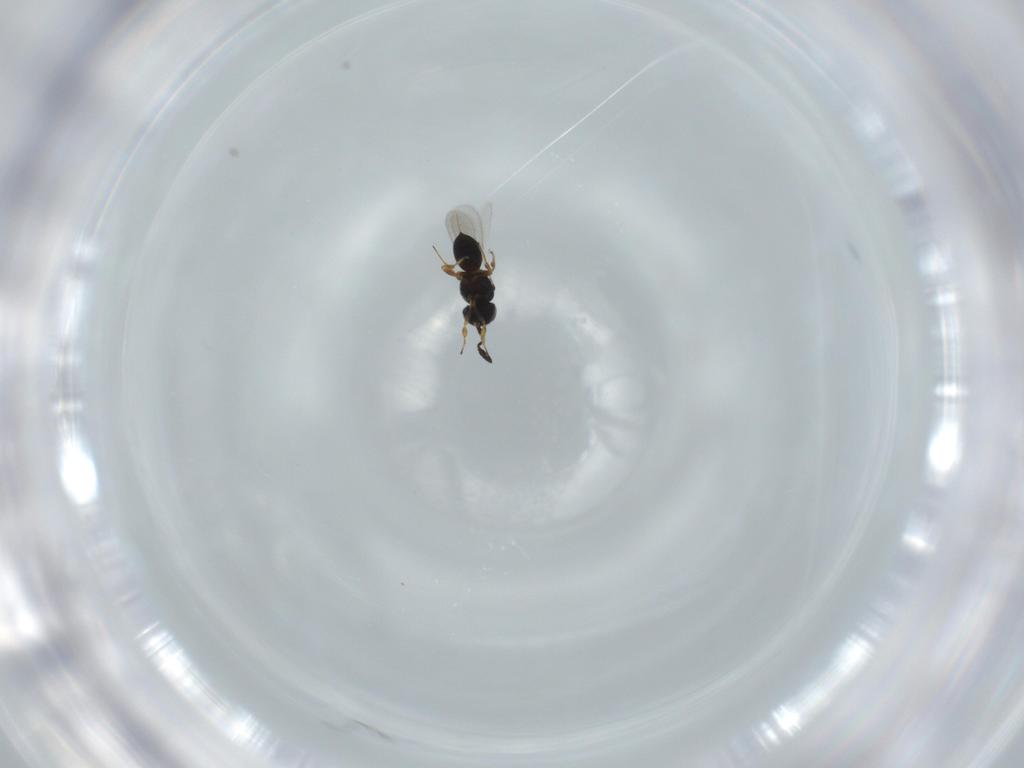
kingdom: Animalia
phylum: Arthropoda
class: Insecta
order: Hymenoptera
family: Scelionidae
